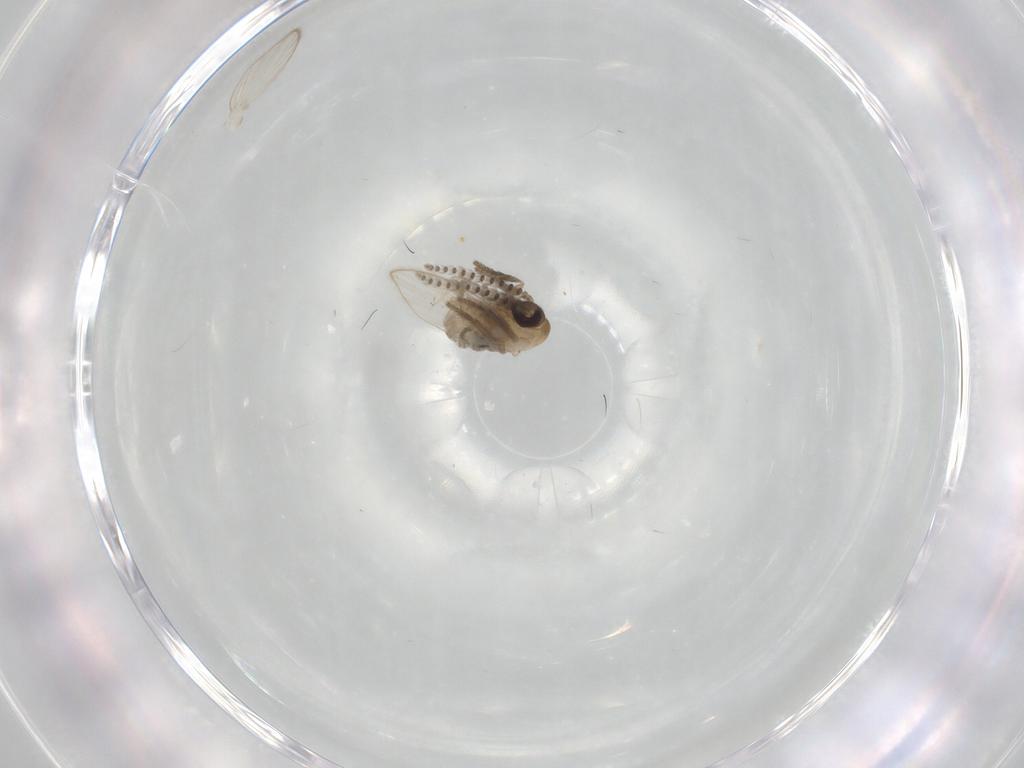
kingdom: Animalia
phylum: Arthropoda
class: Insecta
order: Diptera
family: Psychodidae
